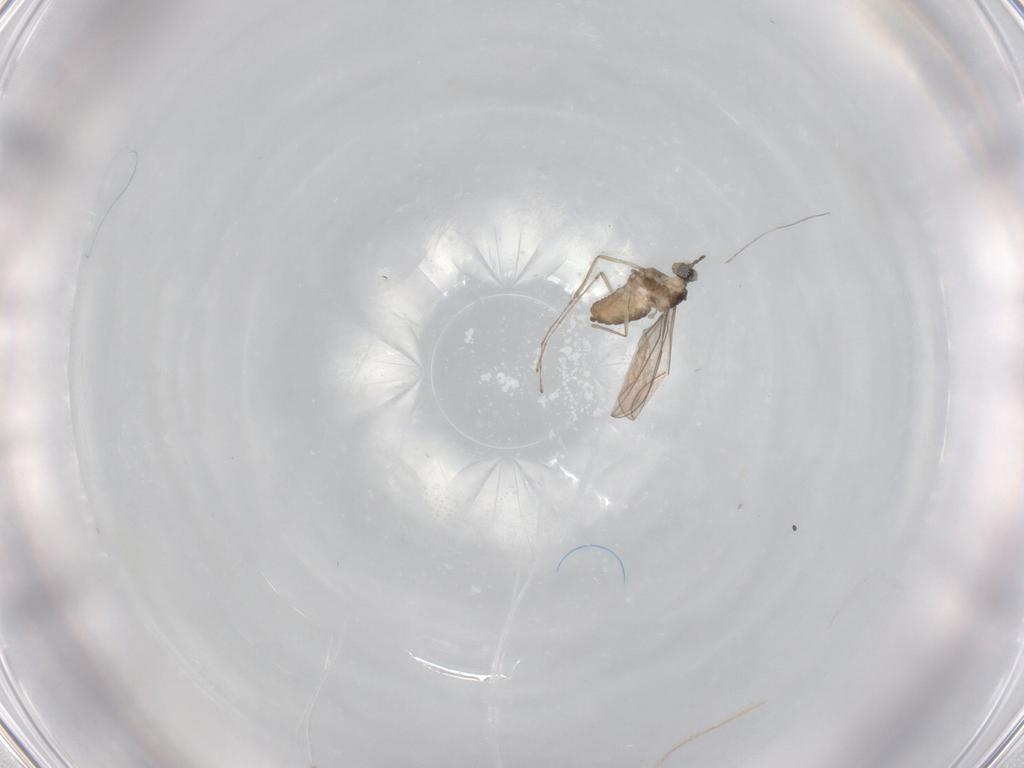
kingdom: Animalia
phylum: Arthropoda
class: Insecta
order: Diptera
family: Cecidomyiidae
